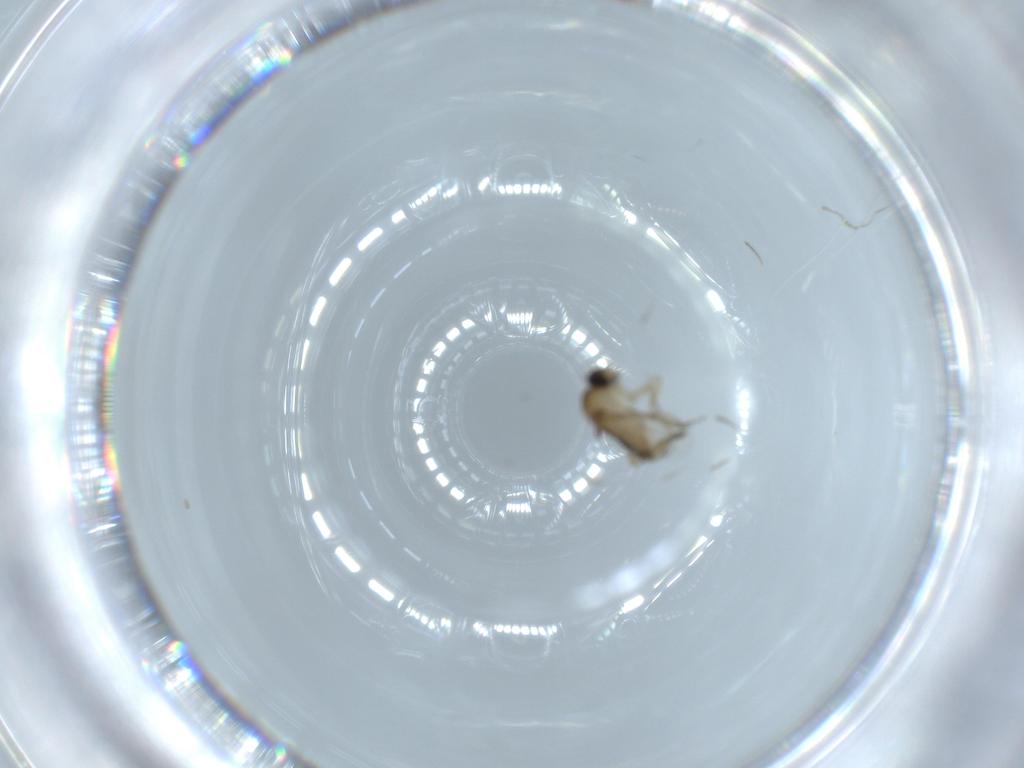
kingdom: Animalia
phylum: Arthropoda
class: Insecta
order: Diptera
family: Phoridae
